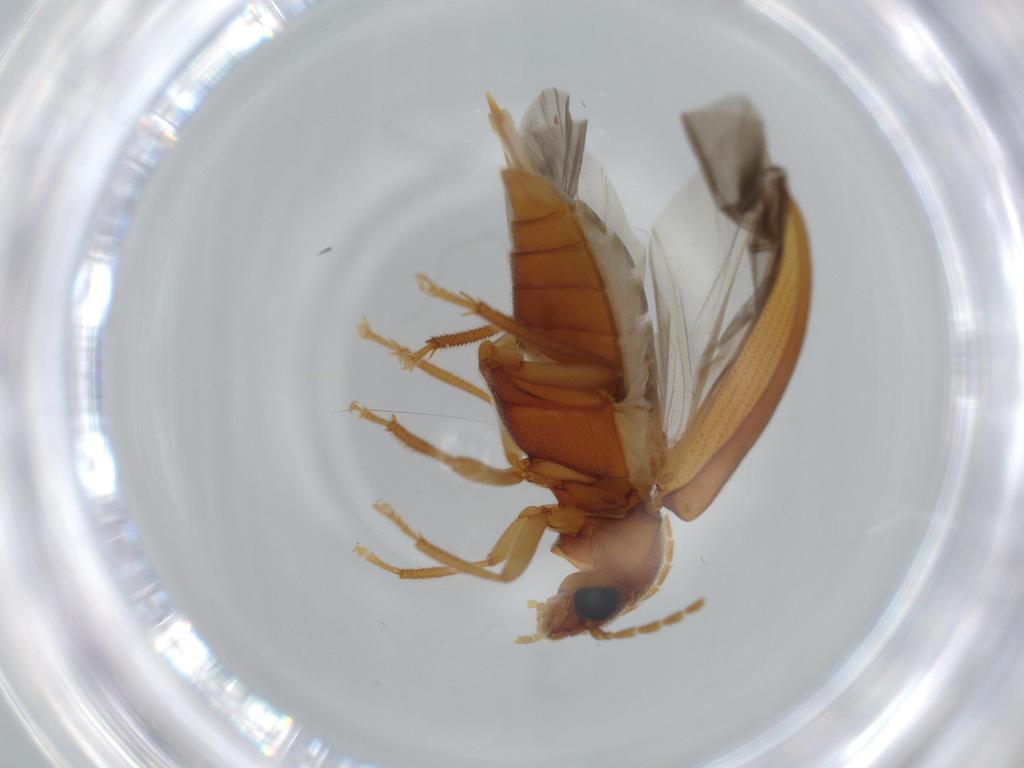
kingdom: Animalia
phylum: Arthropoda
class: Insecta
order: Coleoptera
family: Ptilodactylidae
